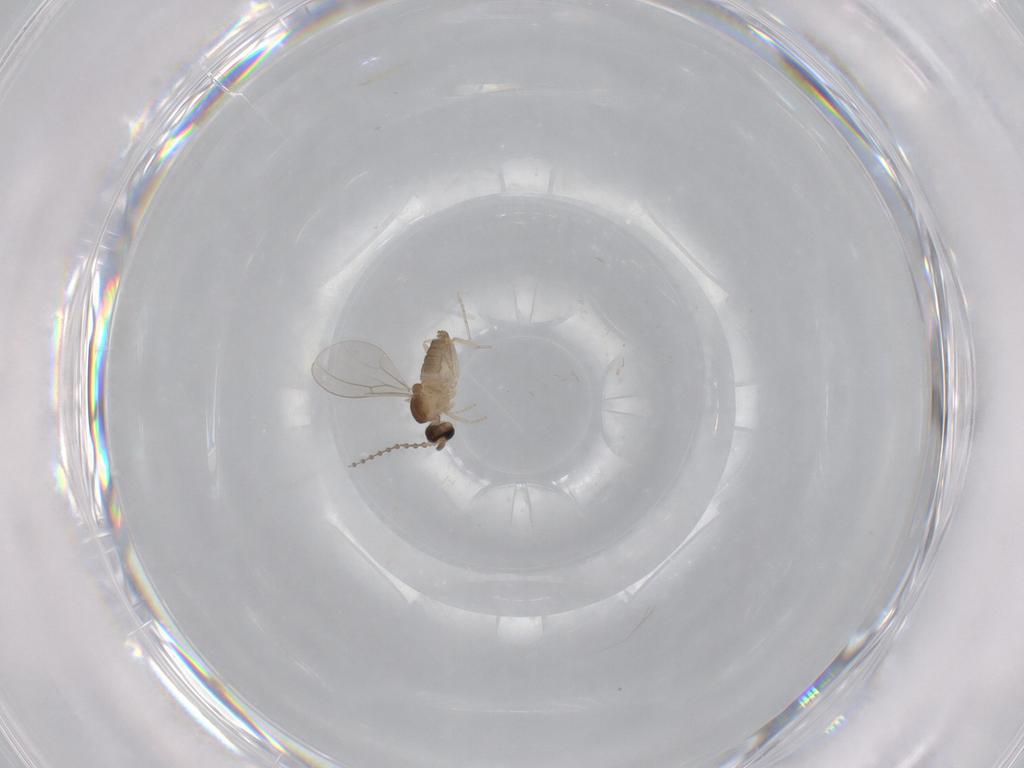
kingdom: Animalia
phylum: Arthropoda
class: Insecta
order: Diptera
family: Cecidomyiidae
